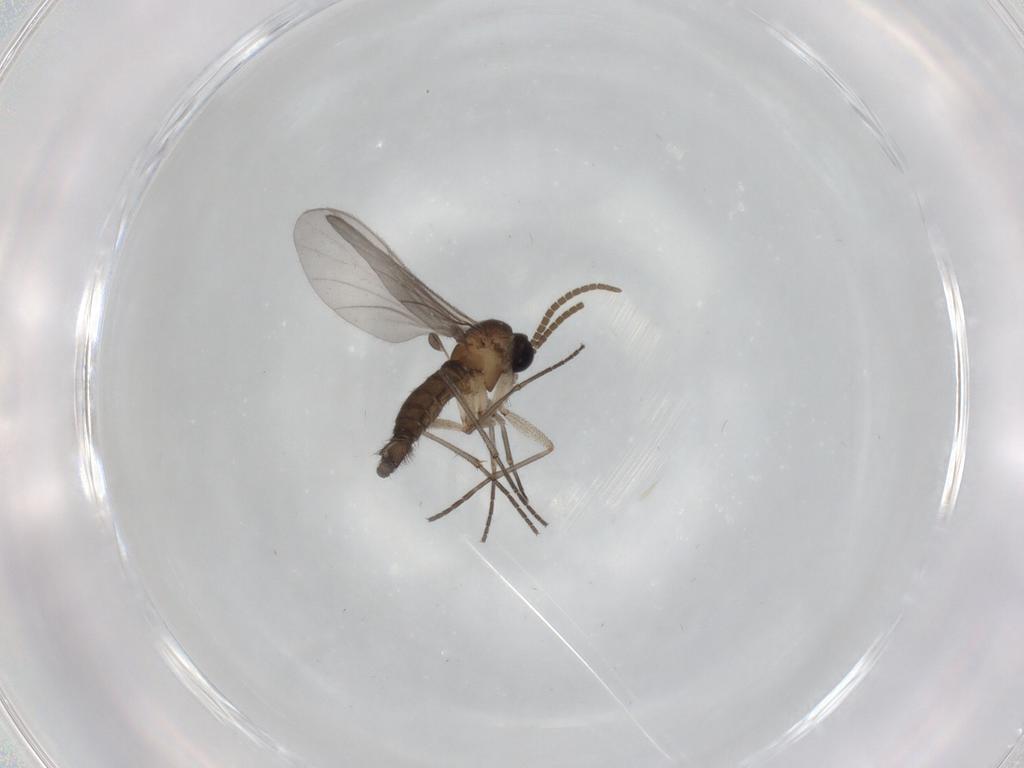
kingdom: Animalia
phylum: Arthropoda
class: Insecta
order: Diptera
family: Chironomidae
